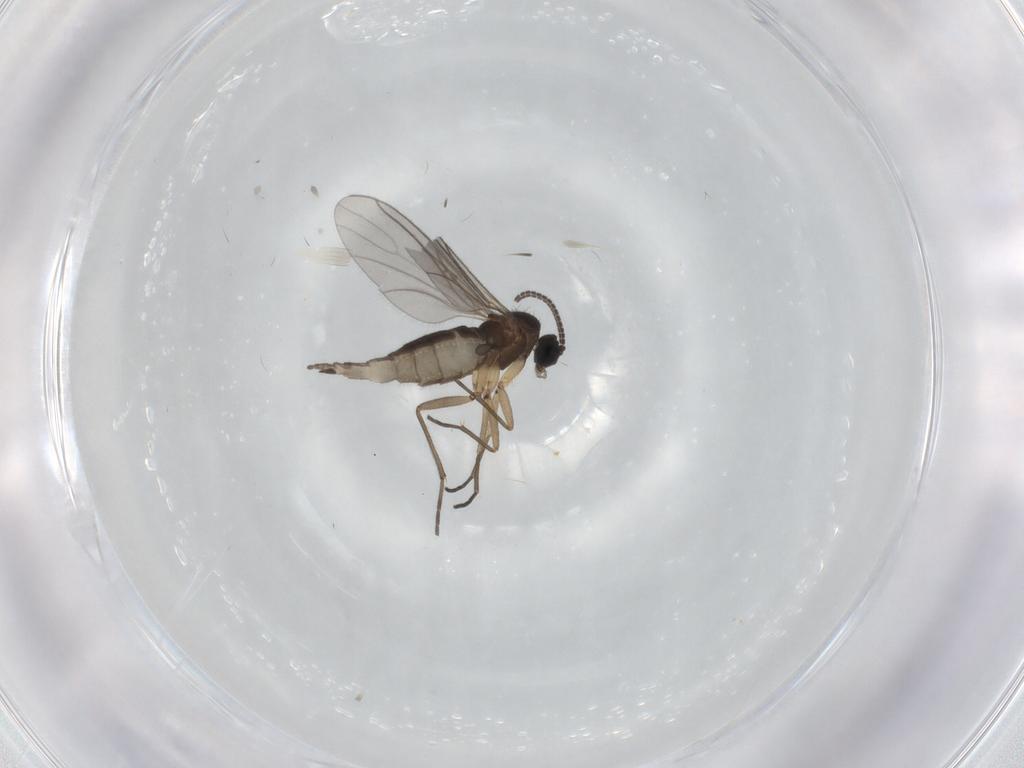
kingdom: Animalia
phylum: Arthropoda
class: Insecta
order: Diptera
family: Sciaridae
